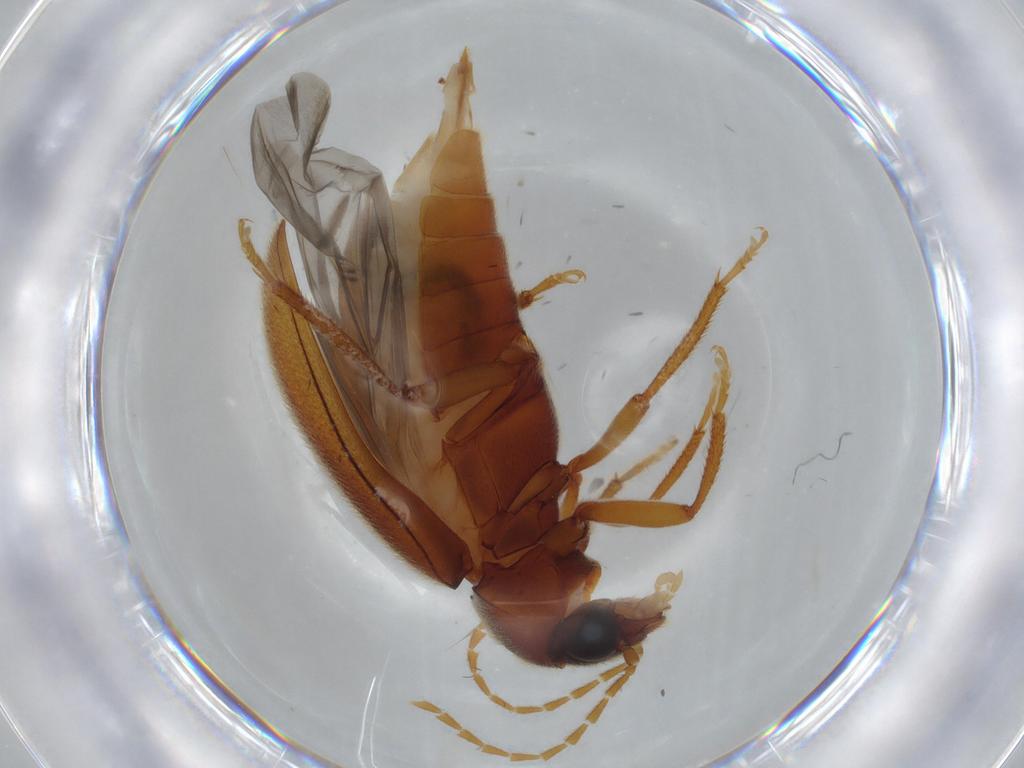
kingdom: Animalia
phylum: Arthropoda
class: Insecta
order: Coleoptera
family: Ptilodactylidae
